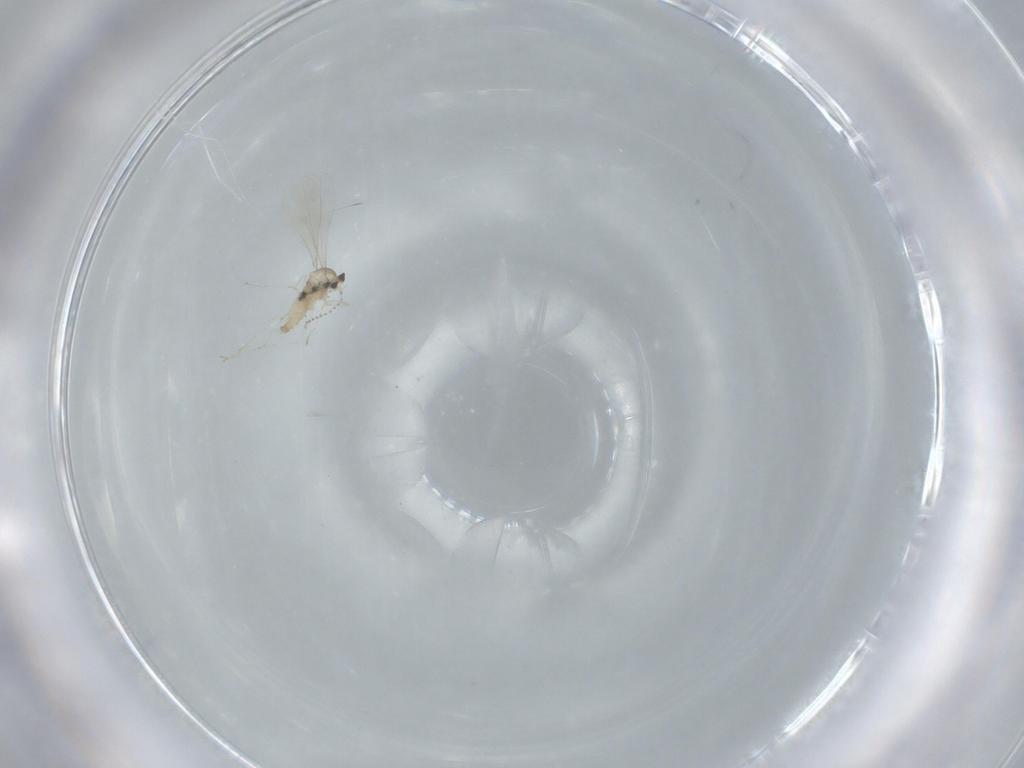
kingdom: Animalia
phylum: Arthropoda
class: Insecta
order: Diptera
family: Cecidomyiidae
